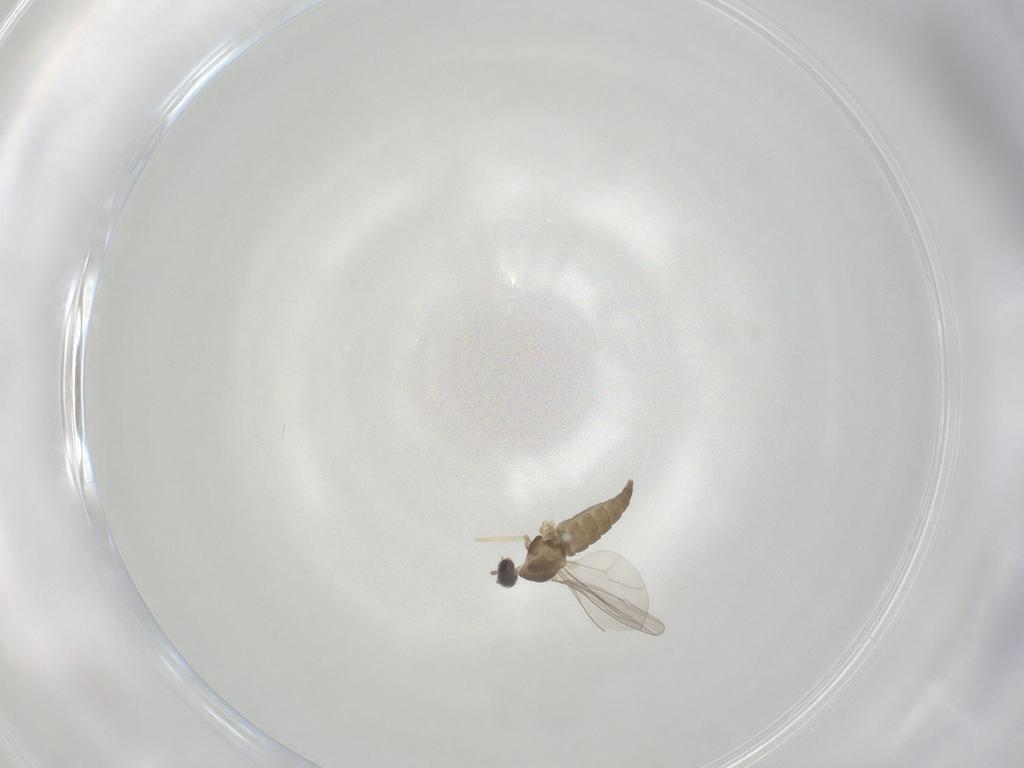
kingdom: Animalia
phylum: Arthropoda
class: Insecta
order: Diptera
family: Cecidomyiidae
